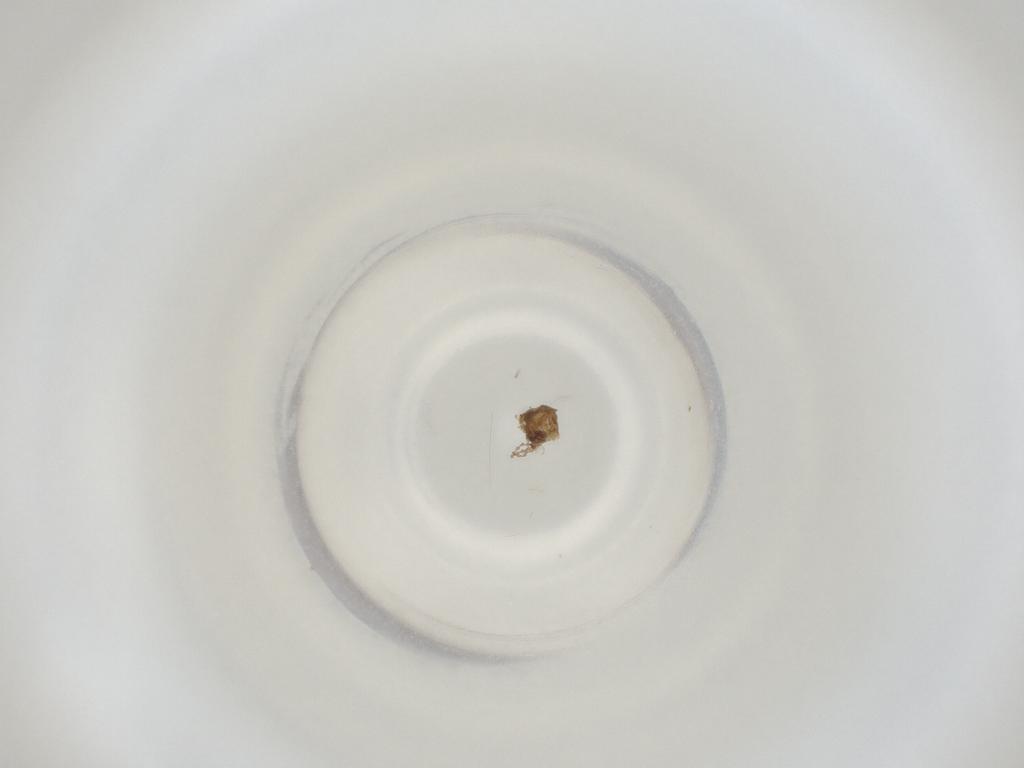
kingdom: Animalia
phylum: Arthropoda
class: Insecta
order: Diptera
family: Cecidomyiidae
